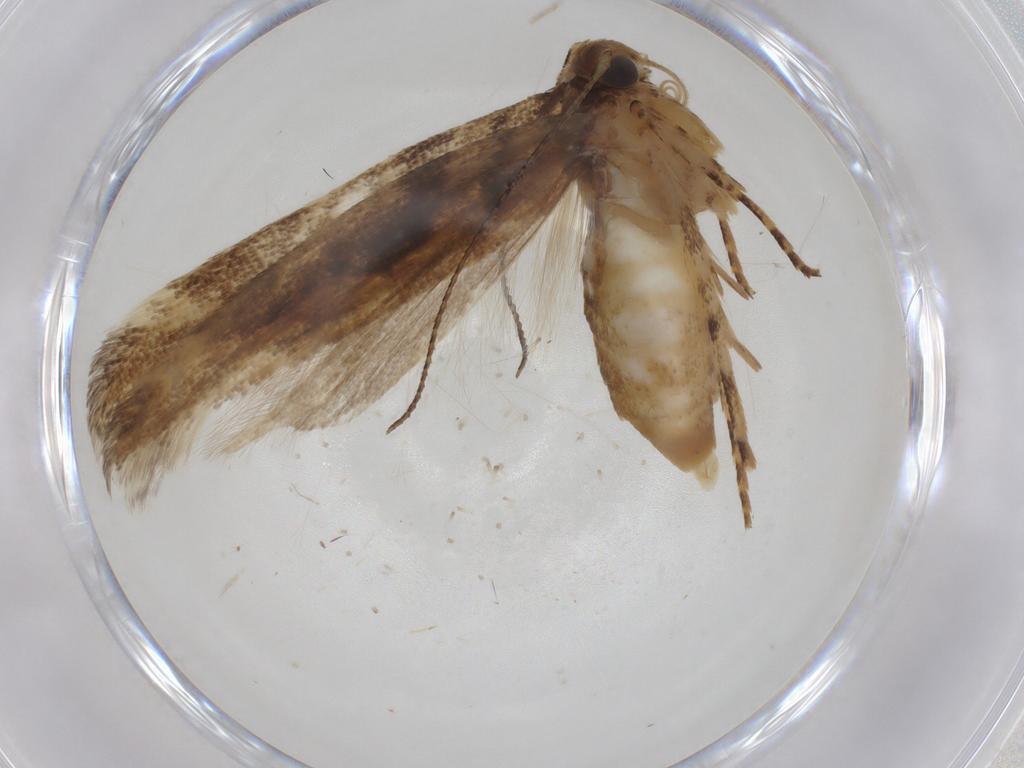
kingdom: Animalia
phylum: Arthropoda
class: Insecta
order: Lepidoptera
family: Gelechiidae
